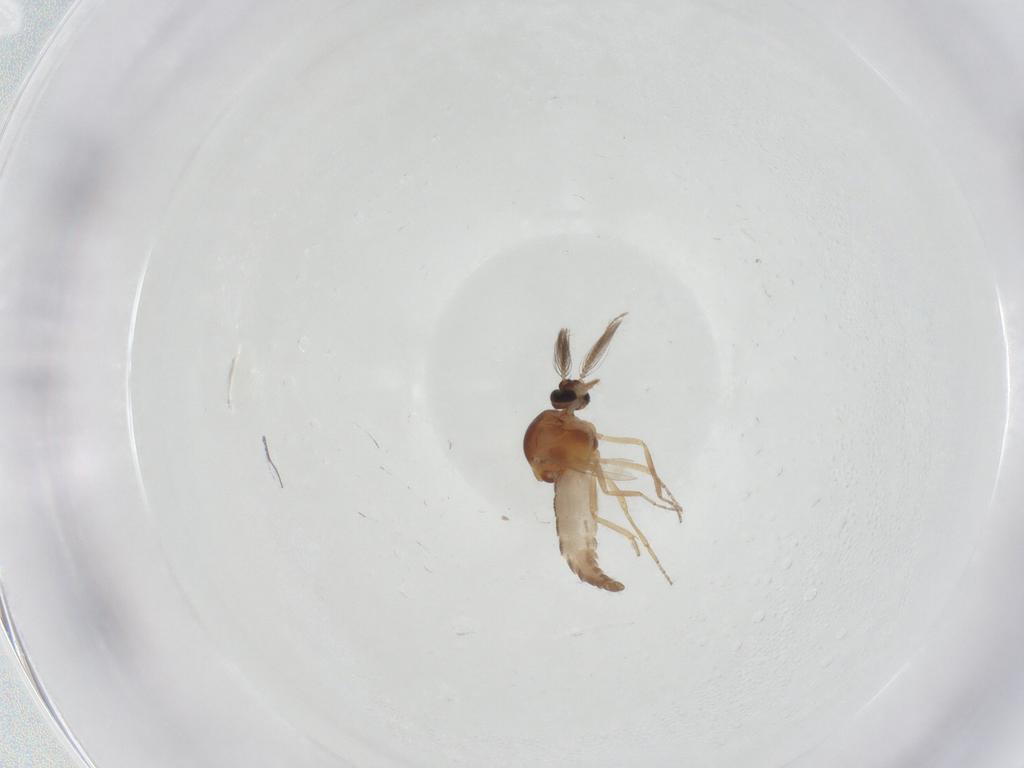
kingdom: Animalia
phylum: Arthropoda
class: Insecta
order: Diptera
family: Ceratopogonidae
